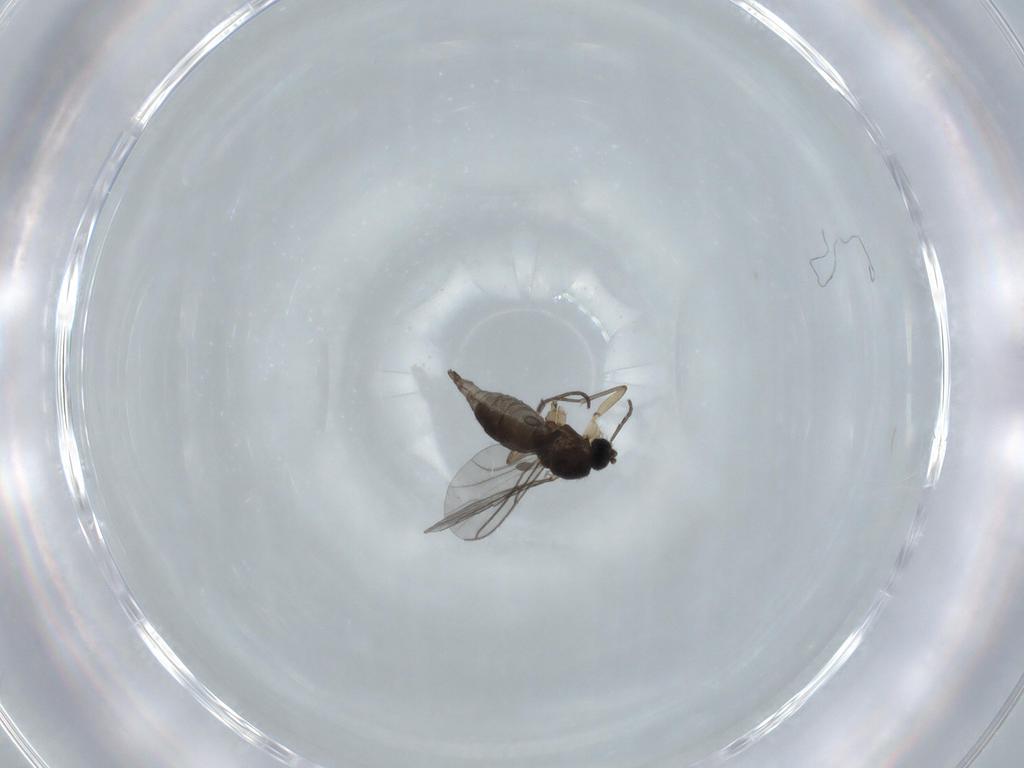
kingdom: Animalia
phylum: Arthropoda
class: Insecta
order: Diptera
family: Sciaridae
